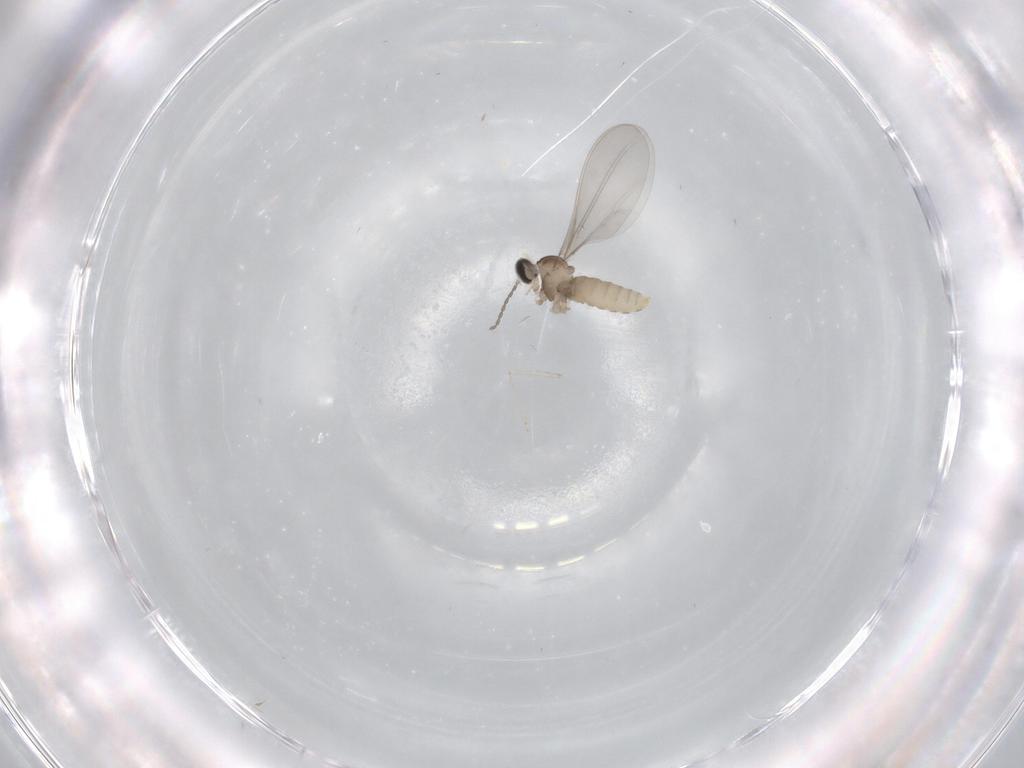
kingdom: Animalia
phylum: Arthropoda
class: Insecta
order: Diptera
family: Cecidomyiidae
